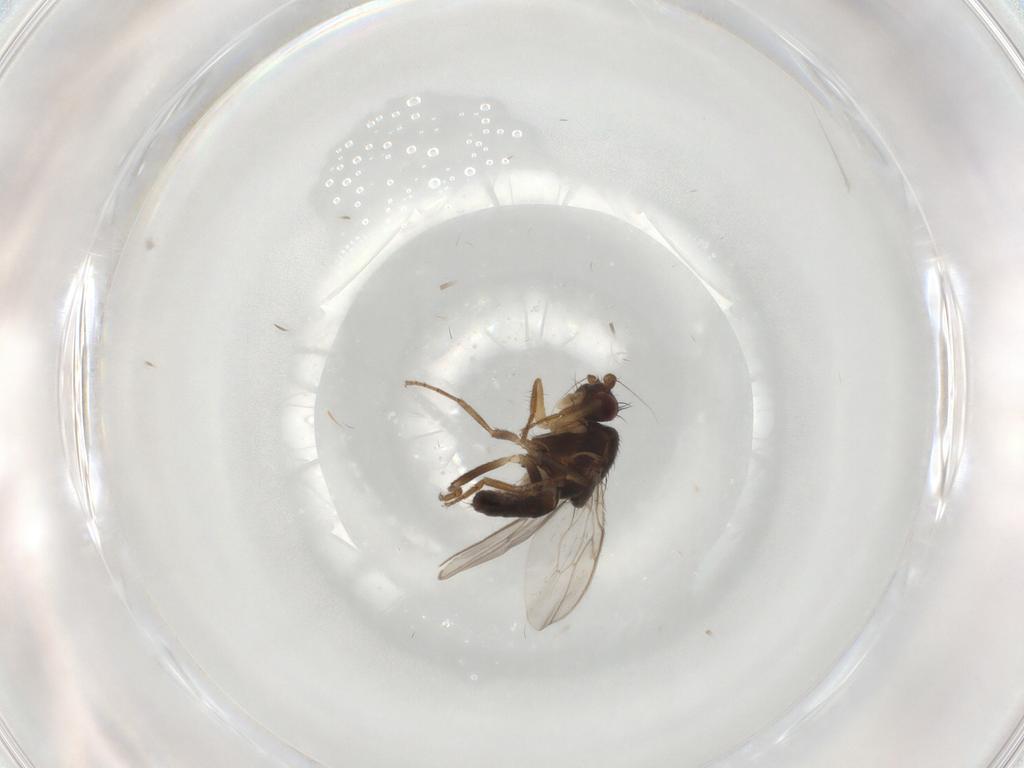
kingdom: Animalia
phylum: Arthropoda
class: Insecta
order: Diptera
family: Sphaeroceridae
